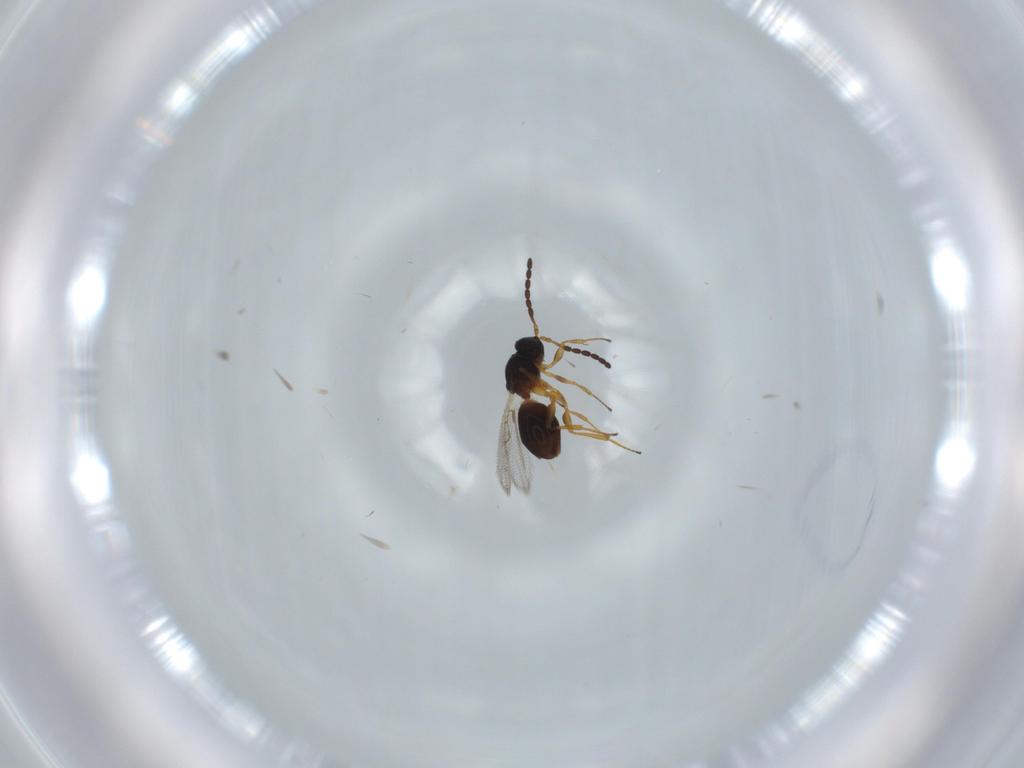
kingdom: Animalia
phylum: Arthropoda
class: Insecta
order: Hymenoptera
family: Figitidae
